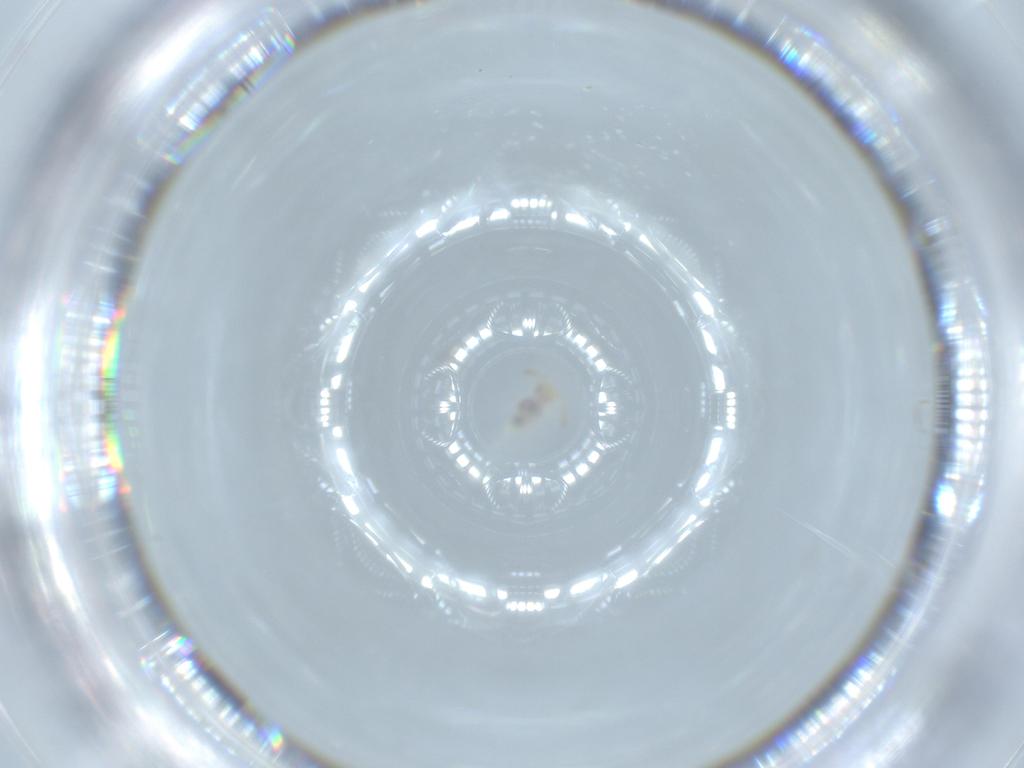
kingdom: Animalia
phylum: Arthropoda
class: Collembola
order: Symphypleona
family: Bourletiellidae
